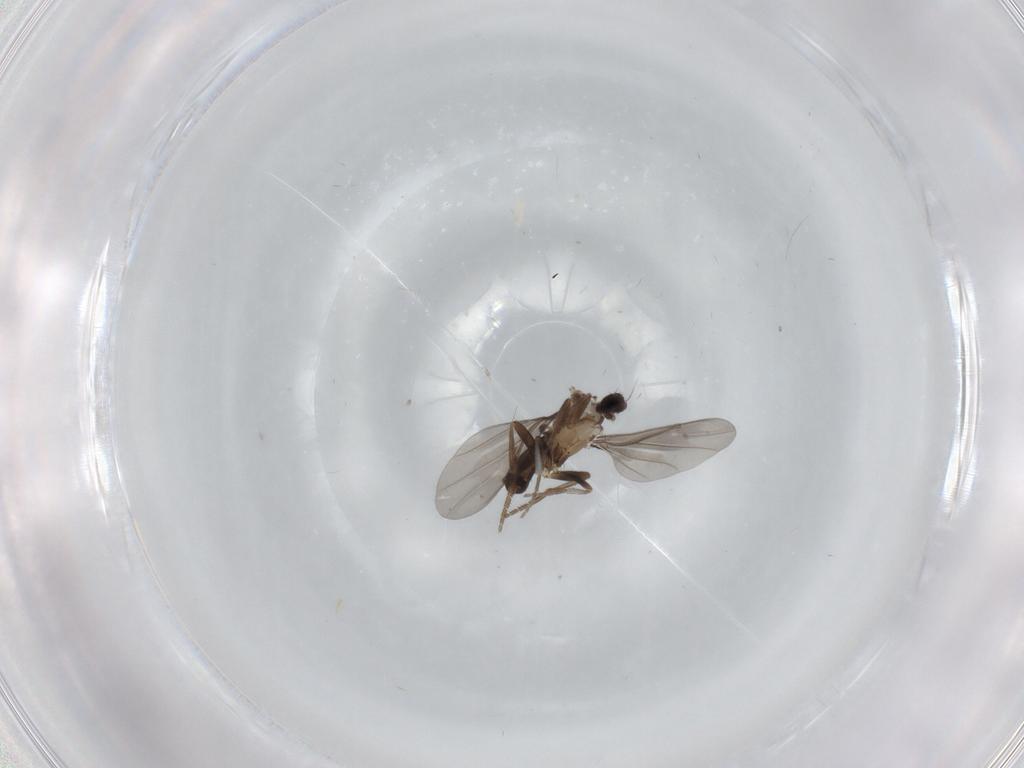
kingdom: Animalia
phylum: Arthropoda
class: Insecta
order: Diptera
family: Phoridae
